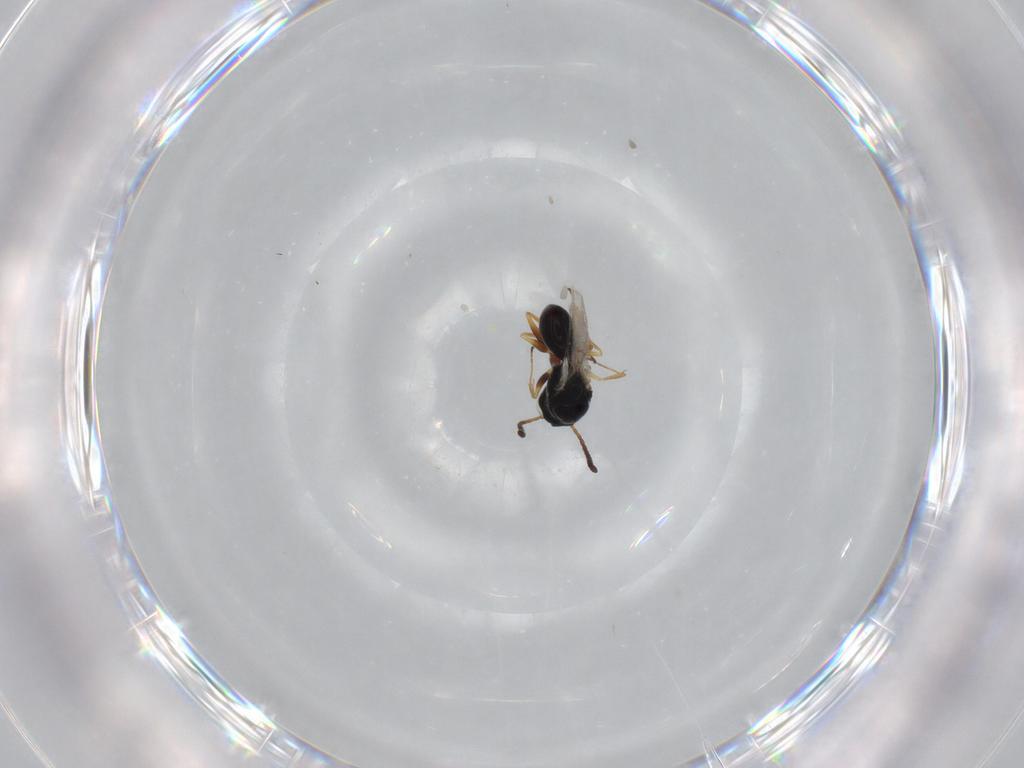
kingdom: Animalia
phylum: Arthropoda
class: Insecta
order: Hymenoptera
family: Figitidae
